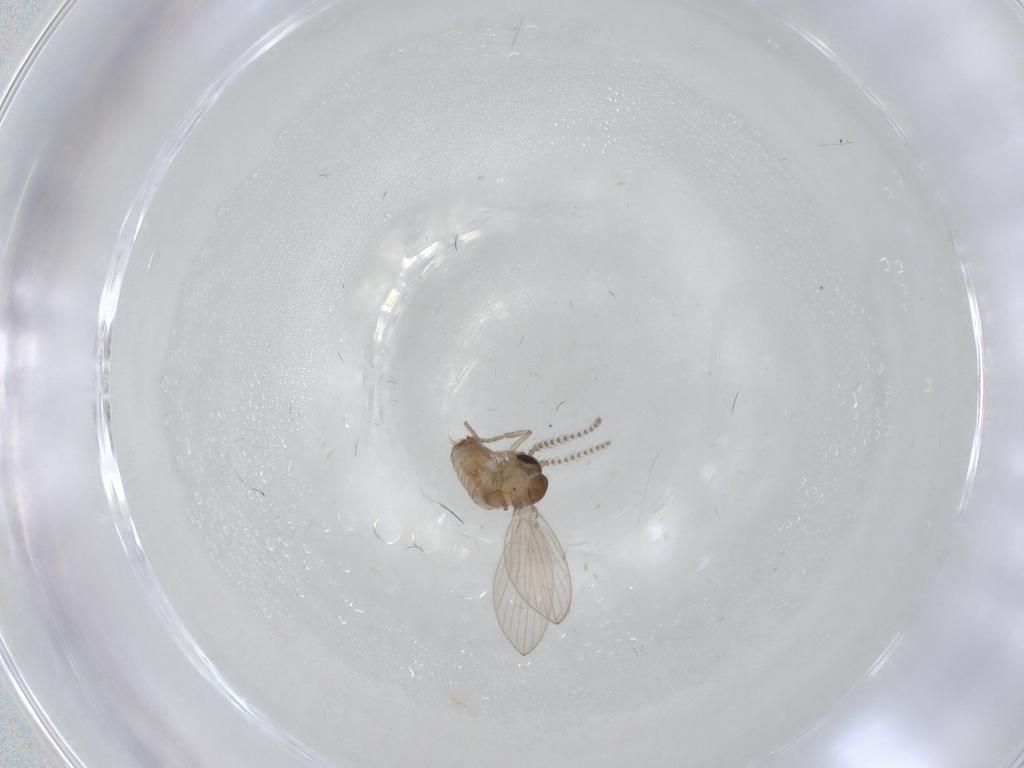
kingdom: Animalia
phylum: Arthropoda
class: Insecta
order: Diptera
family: Psychodidae
